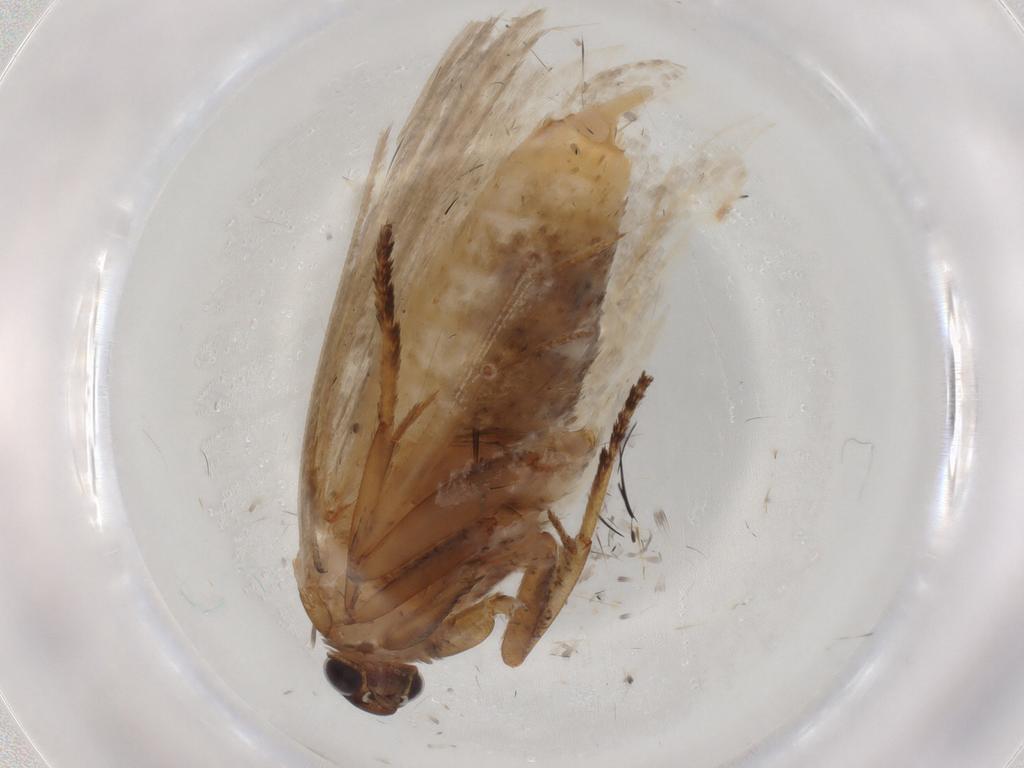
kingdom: Animalia
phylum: Arthropoda
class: Insecta
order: Lepidoptera
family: Cosmopterigidae
